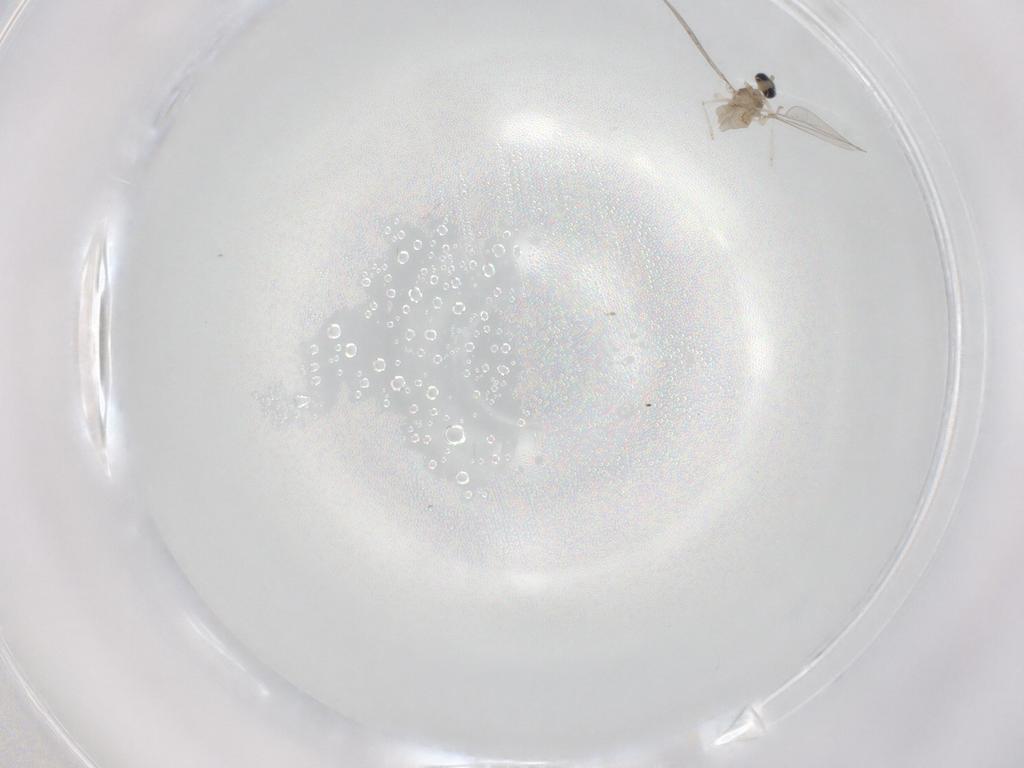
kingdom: Animalia
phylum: Arthropoda
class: Insecta
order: Diptera
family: Cecidomyiidae
